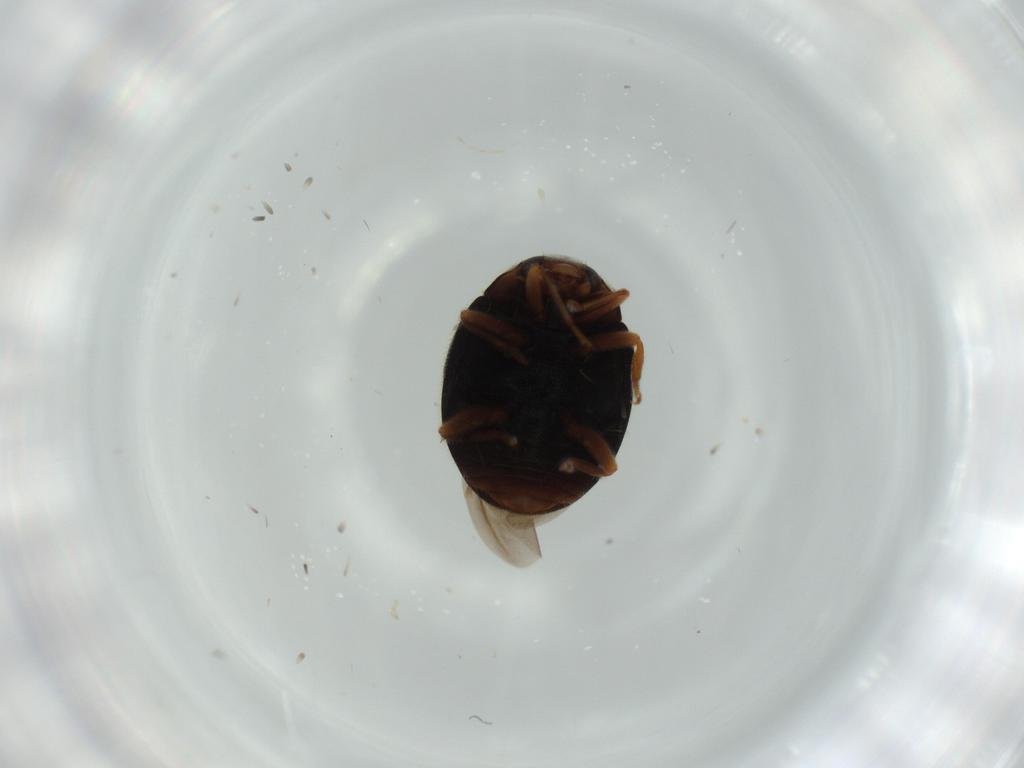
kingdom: Animalia
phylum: Arthropoda
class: Insecta
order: Coleoptera
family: Coccinellidae
